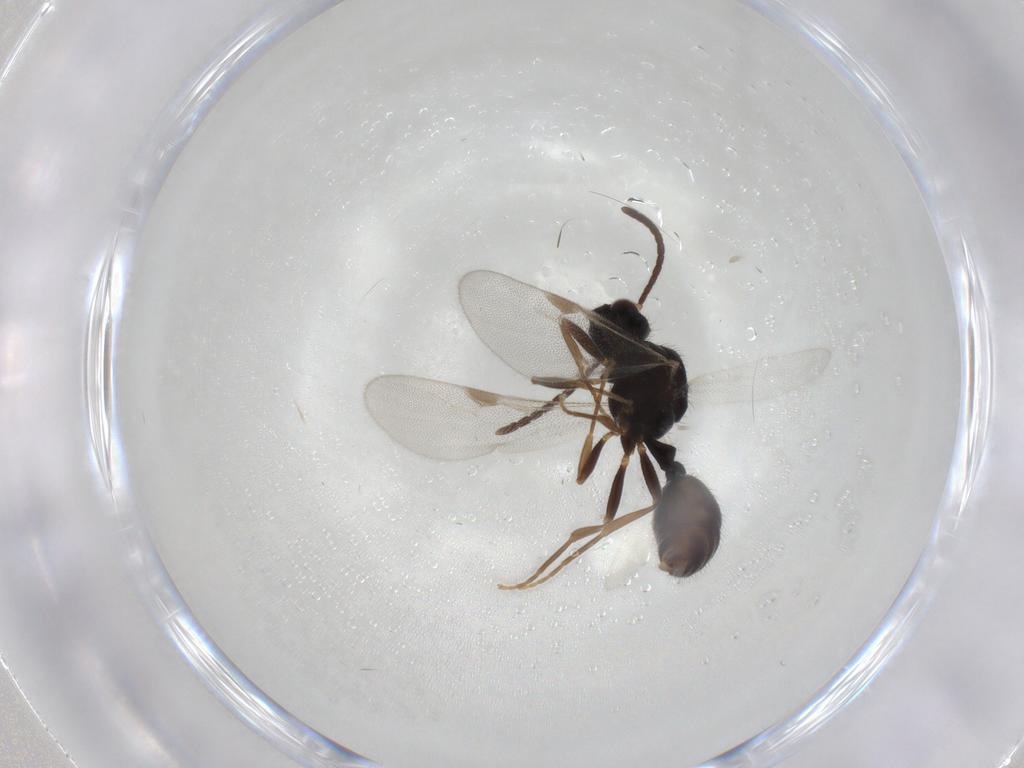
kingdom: Animalia
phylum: Arthropoda
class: Insecta
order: Hymenoptera
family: Formicidae
